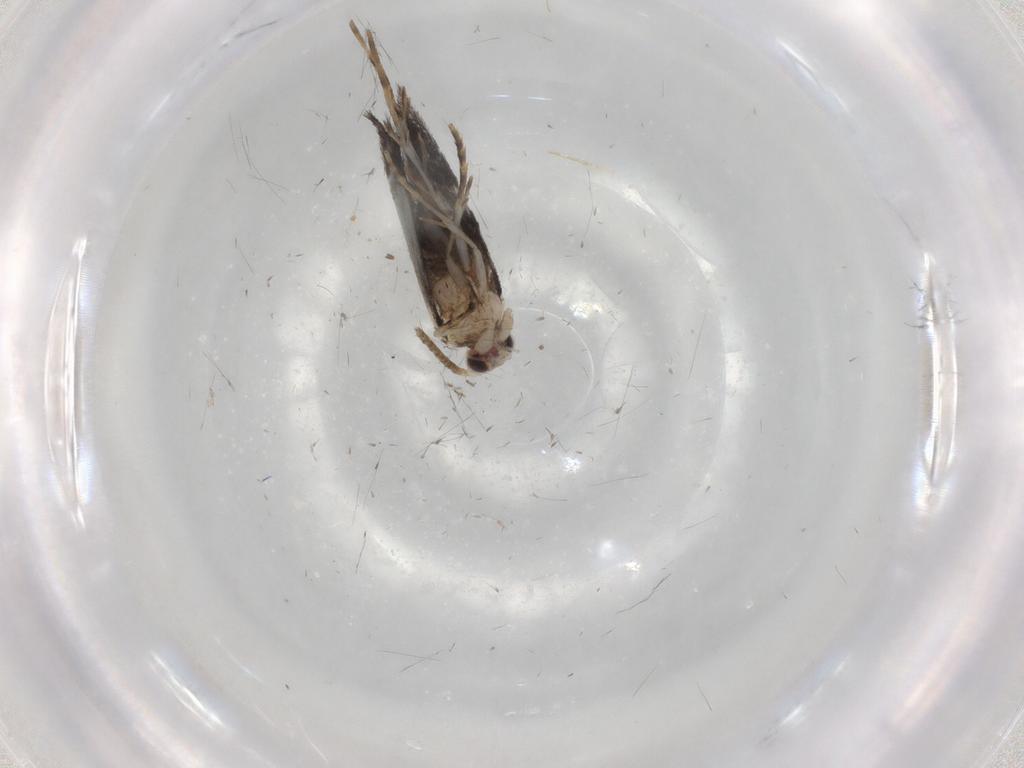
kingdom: Animalia
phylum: Arthropoda
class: Insecta
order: Lepidoptera
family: Tineidae
